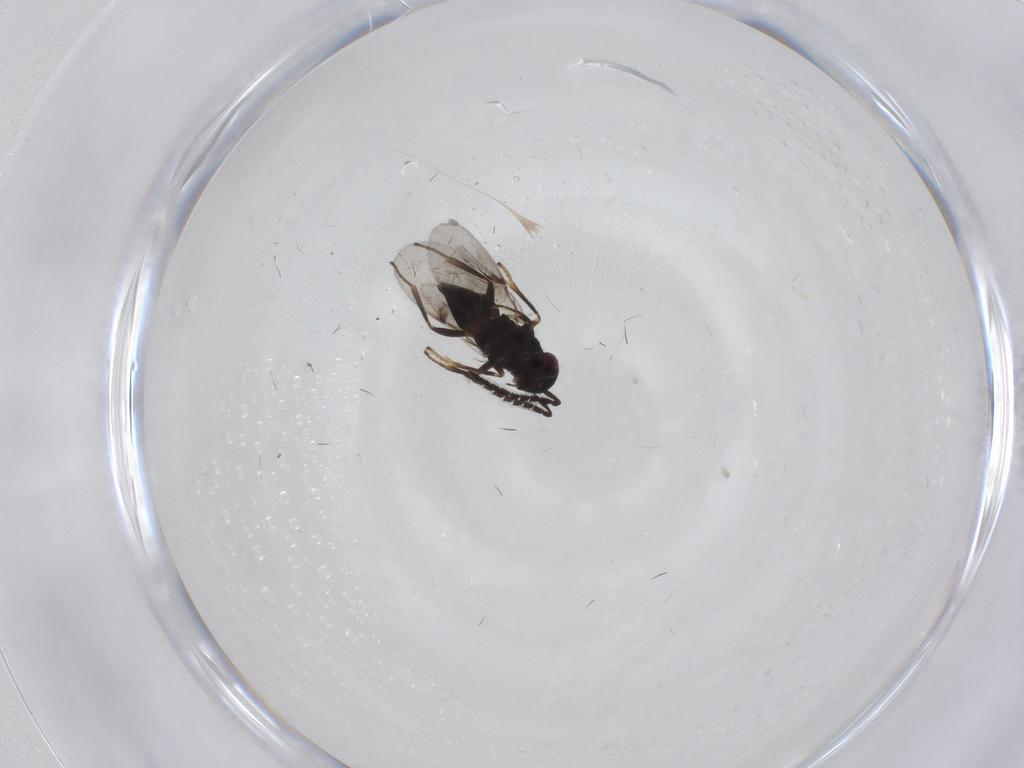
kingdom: Animalia
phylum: Arthropoda
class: Insecta
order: Hymenoptera
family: Encyrtidae
